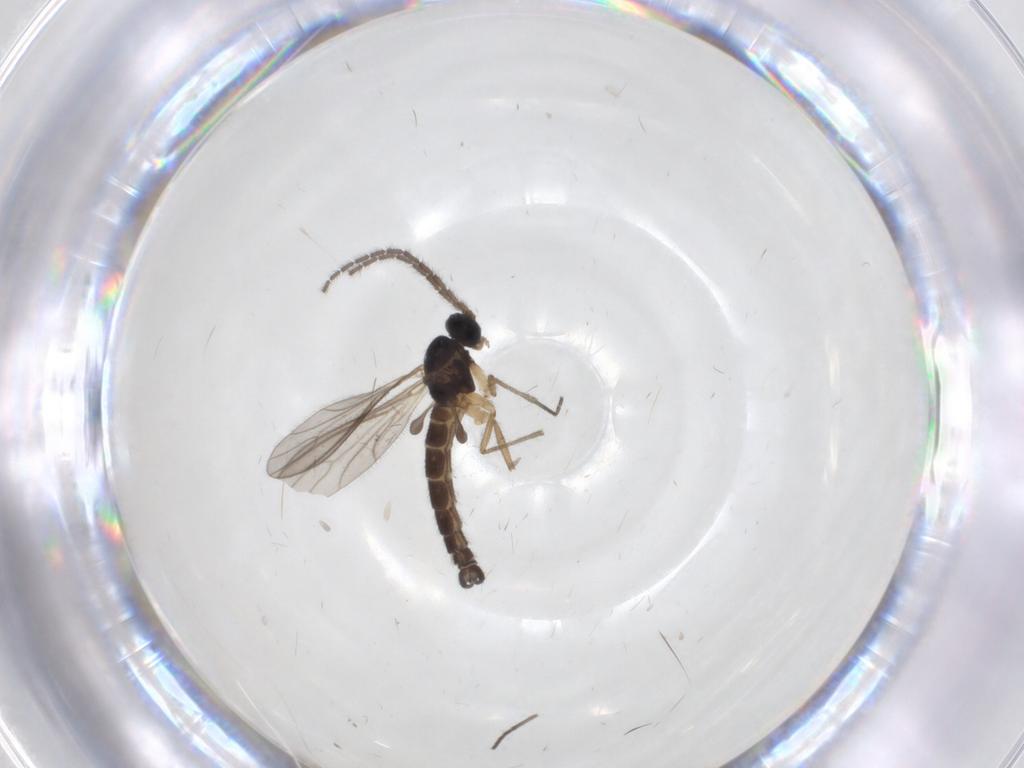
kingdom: Animalia
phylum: Arthropoda
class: Insecta
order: Diptera
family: Sciaridae
